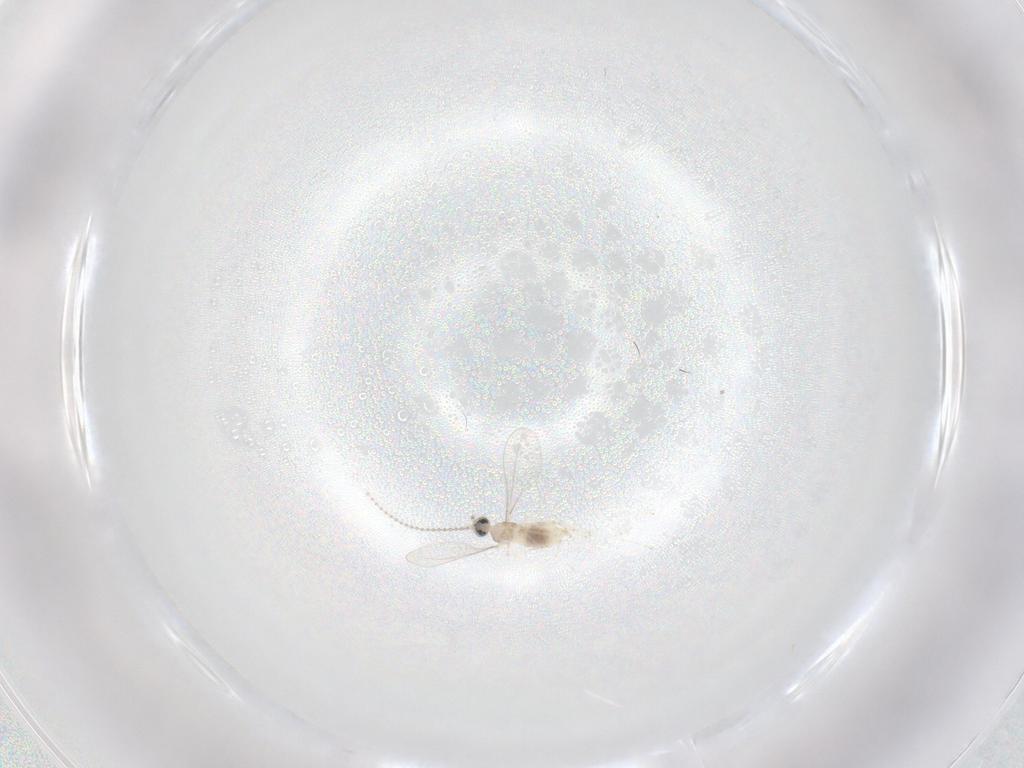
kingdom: Animalia
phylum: Arthropoda
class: Insecta
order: Diptera
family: Cecidomyiidae
